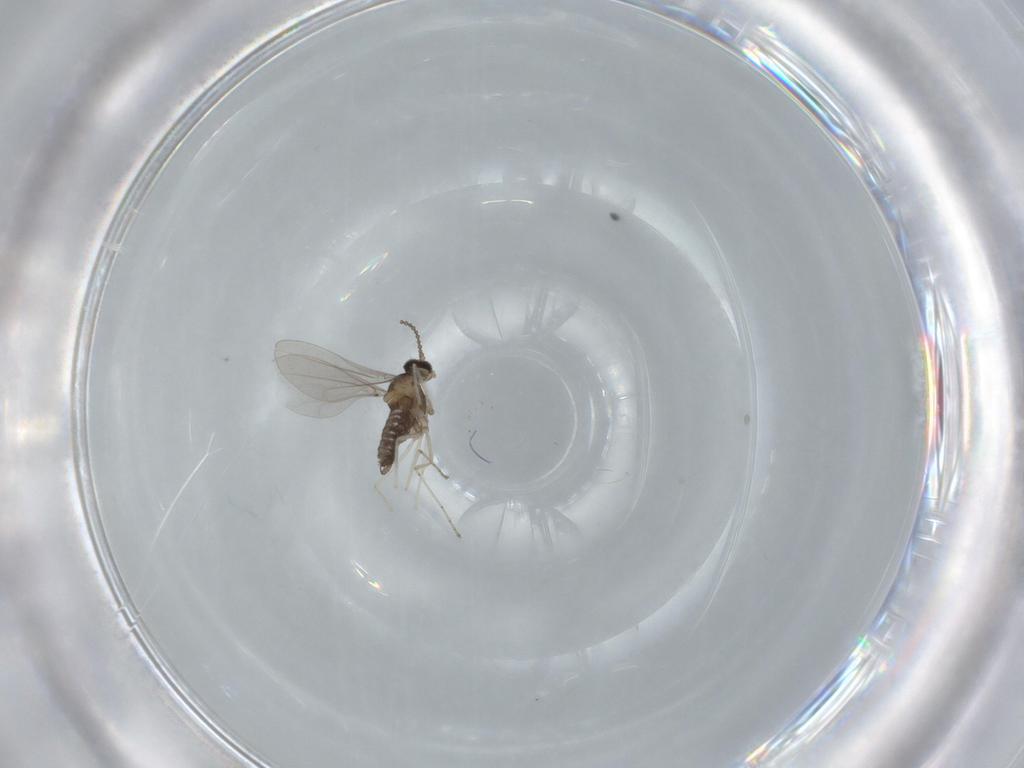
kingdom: Animalia
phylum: Arthropoda
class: Insecta
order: Diptera
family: Cecidomyiidae
